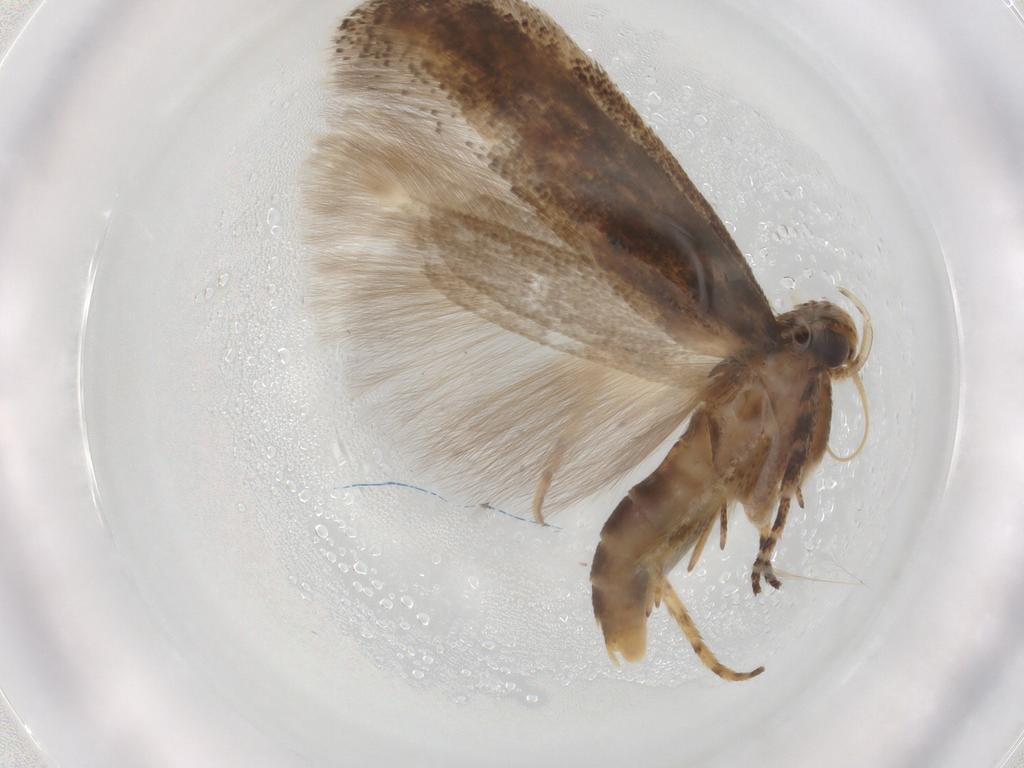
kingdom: Animalia
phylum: Arthropoda
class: Insecta
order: Lepidoptera
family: Gelechiidae
